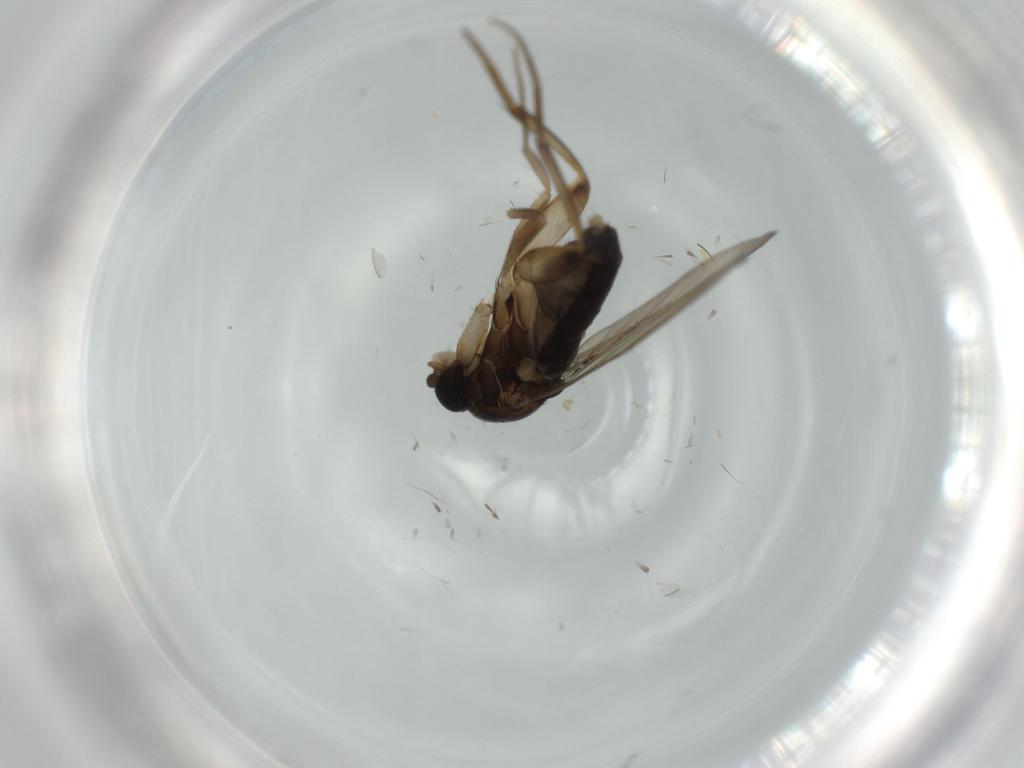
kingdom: Animalia
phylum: Arthropoda
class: Insecta
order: Diptera
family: Phoridae
